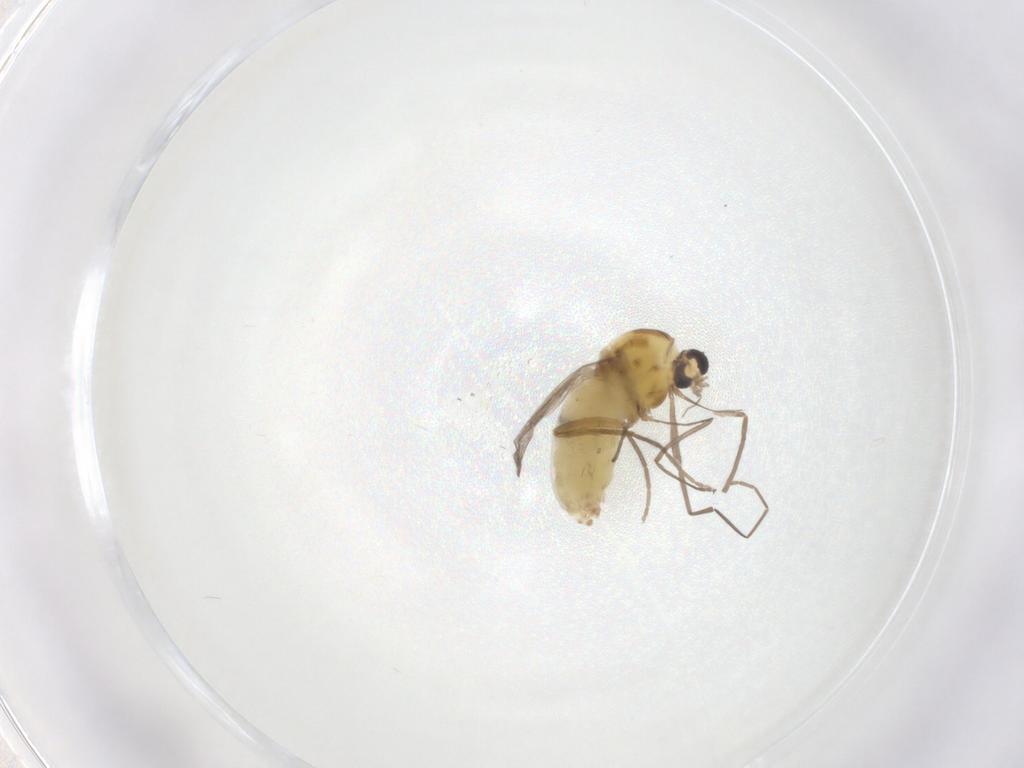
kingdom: Animalia
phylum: Arthropoda
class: Insecta
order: Diptera
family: Chironomidae
